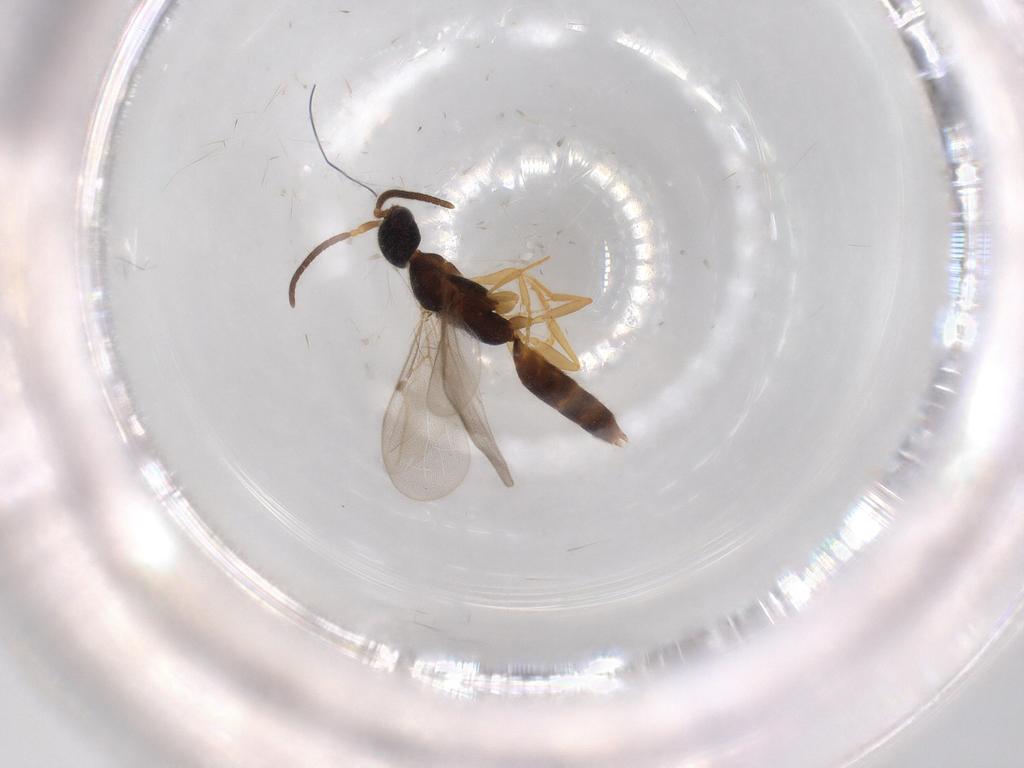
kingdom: Animalia
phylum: Arthropoda
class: Insecta
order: Hymenoptera
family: Bethylidae
